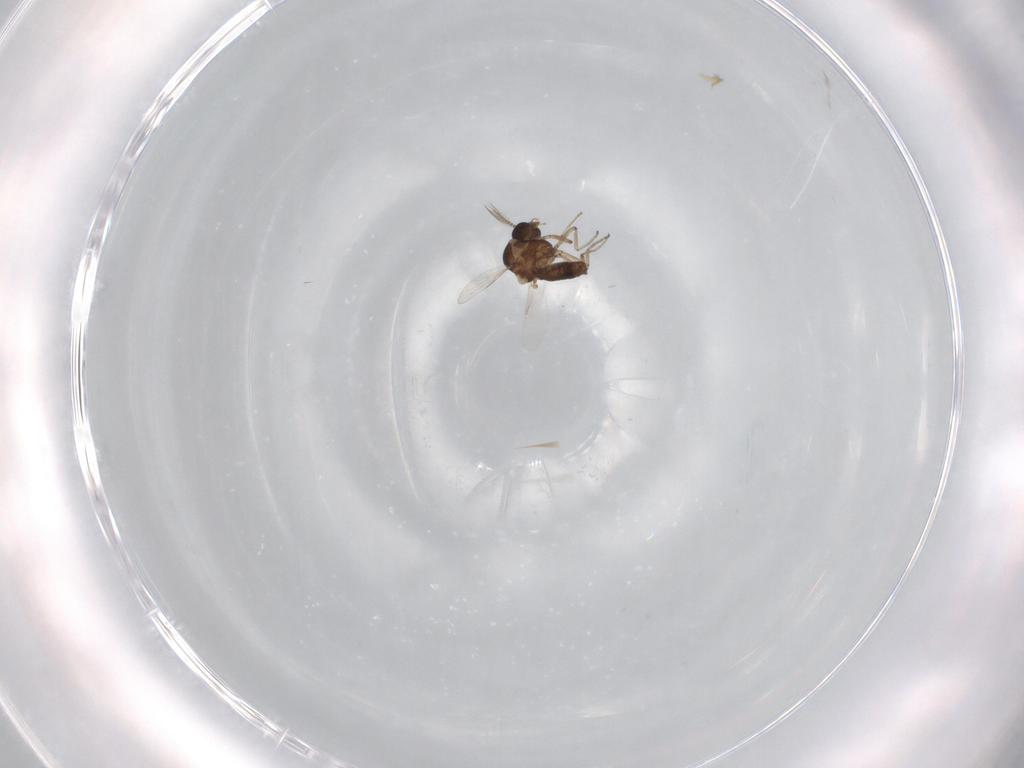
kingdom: Animalia
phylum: Arthropoda
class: Insecta
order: Diptera
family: Ceratopogonidae
